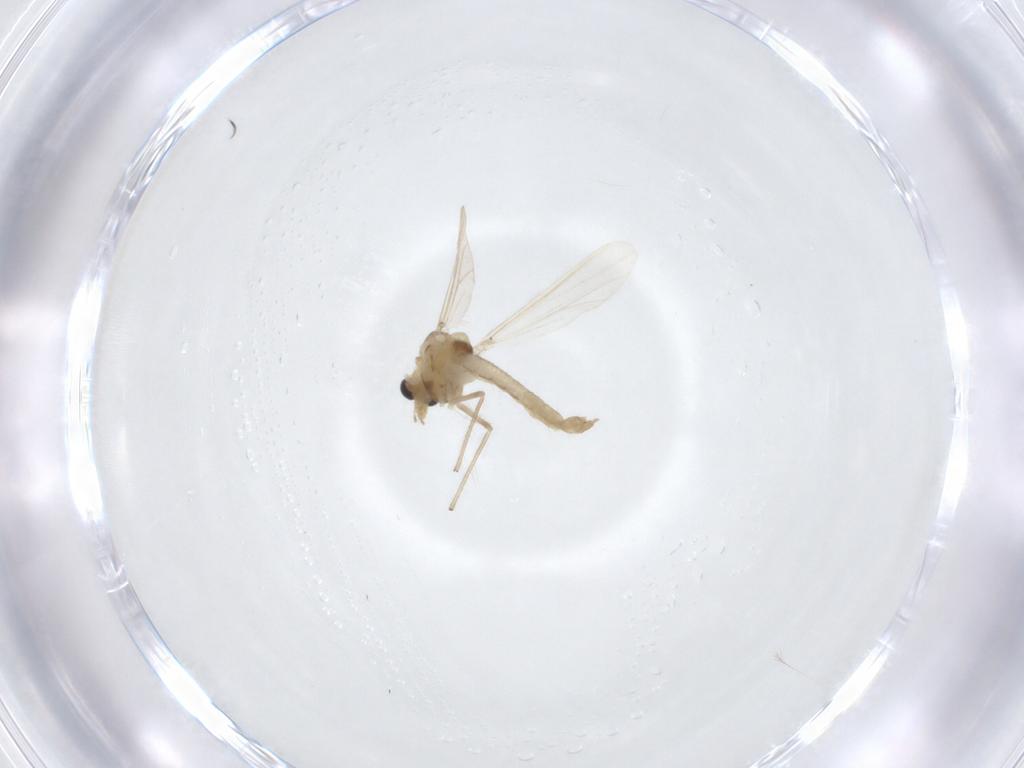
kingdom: Animalia
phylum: Arthropoda
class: Insecta
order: Diptera
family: Chironomidae
